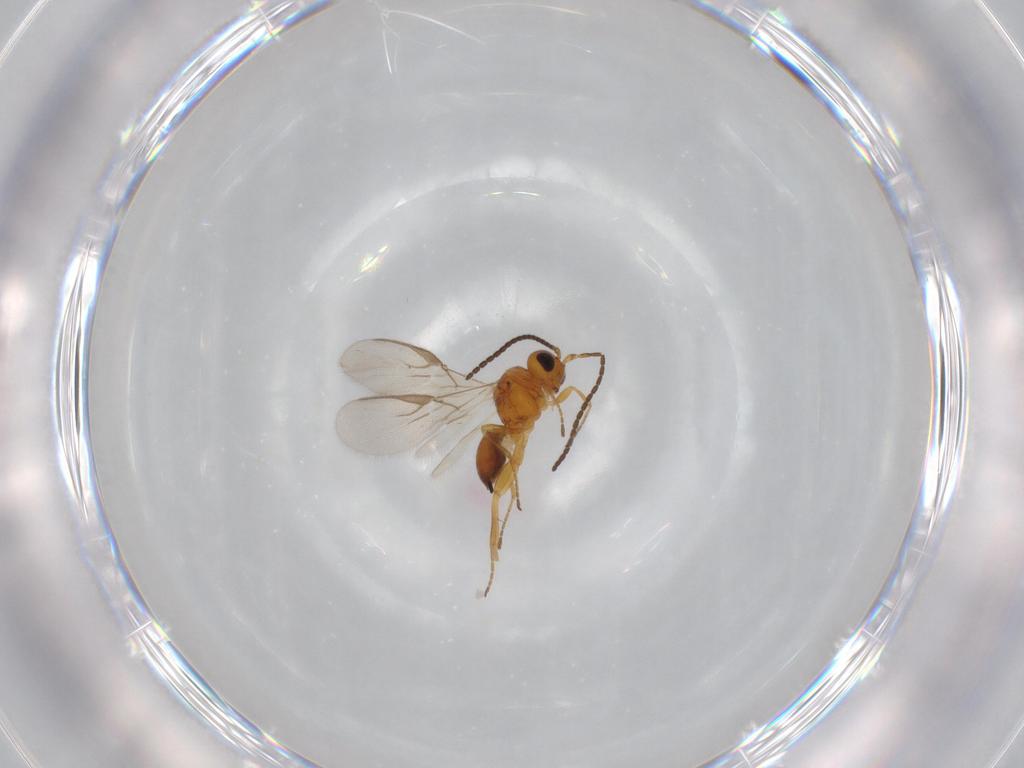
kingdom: Animalia
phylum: Arthropoda
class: Insecta
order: Hymenoptera
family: Braconidae
